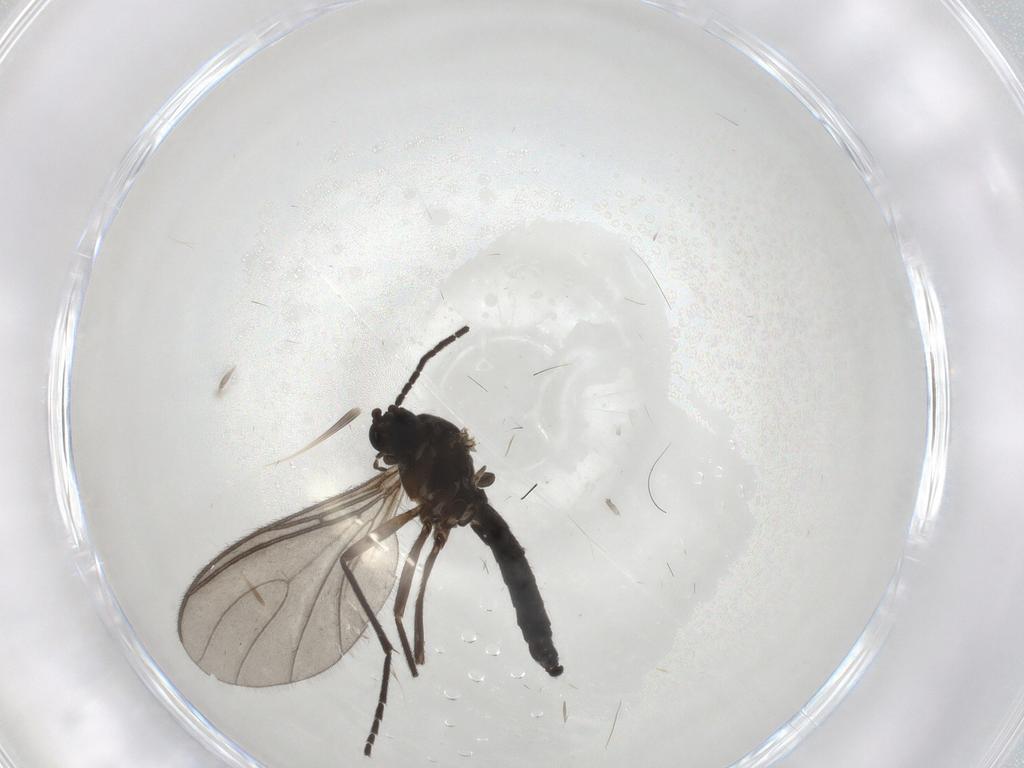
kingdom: Animalia
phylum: Arthropoda
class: Insecta
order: Diptera
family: Sciaridae
